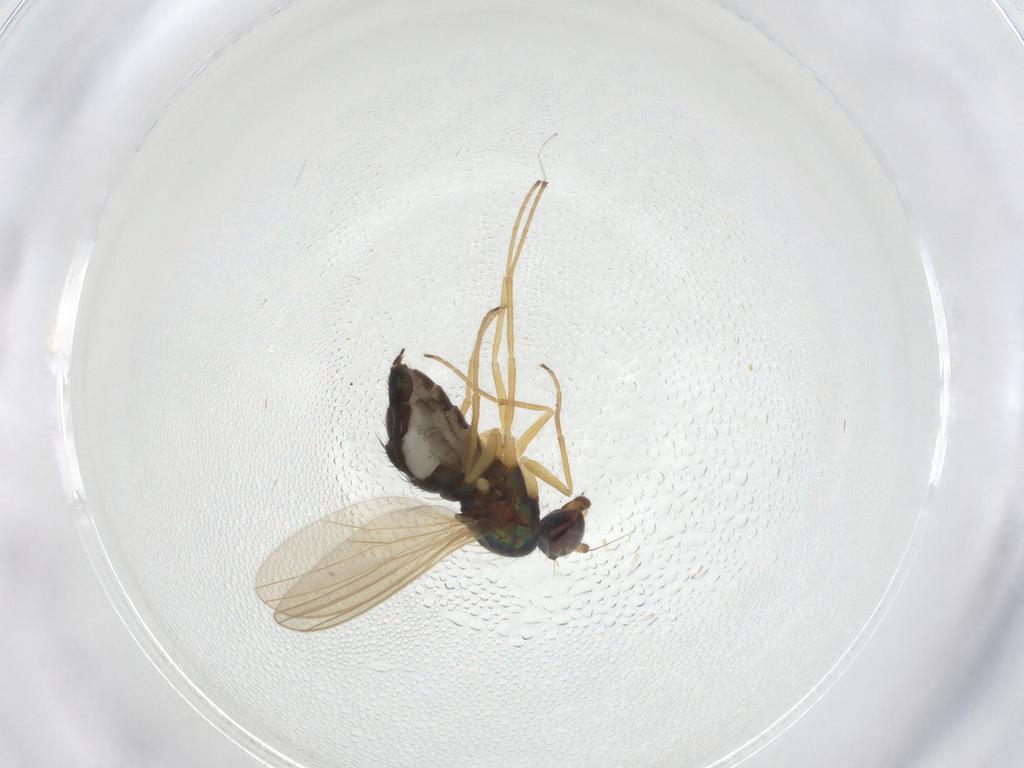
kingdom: Animalia
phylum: Arthropoda
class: Insecta
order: Diptera
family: Dolichopodidae
